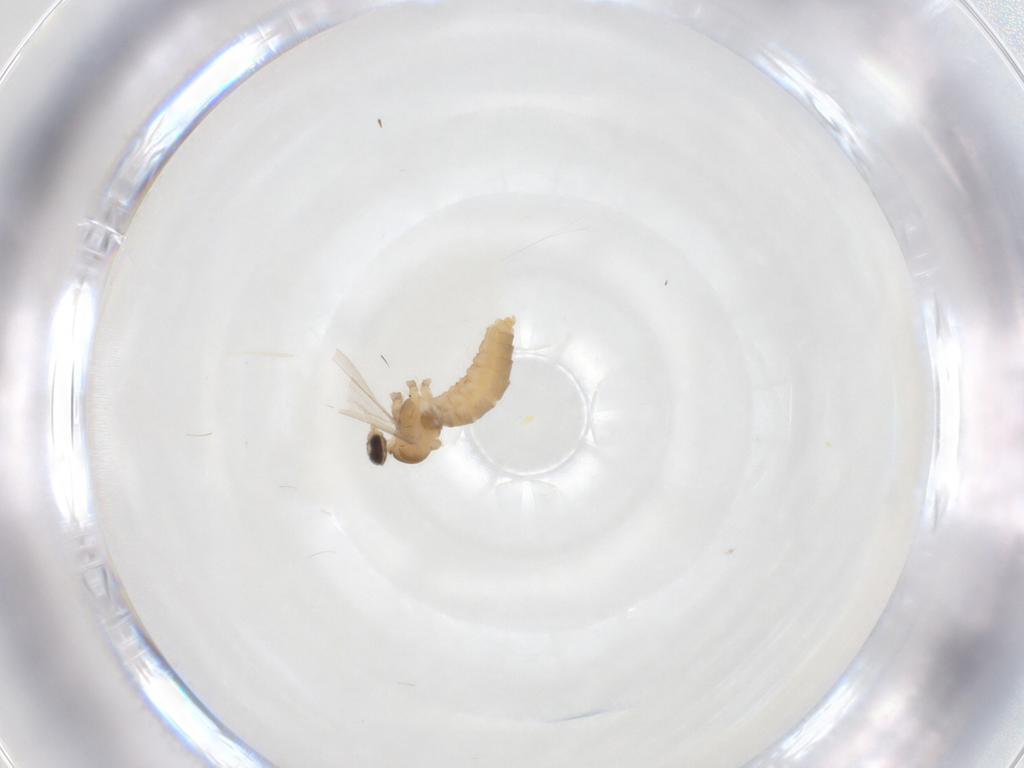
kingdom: Animalia
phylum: Arthropoda
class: Insecta
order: Diptera
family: Cecidomyiidae
